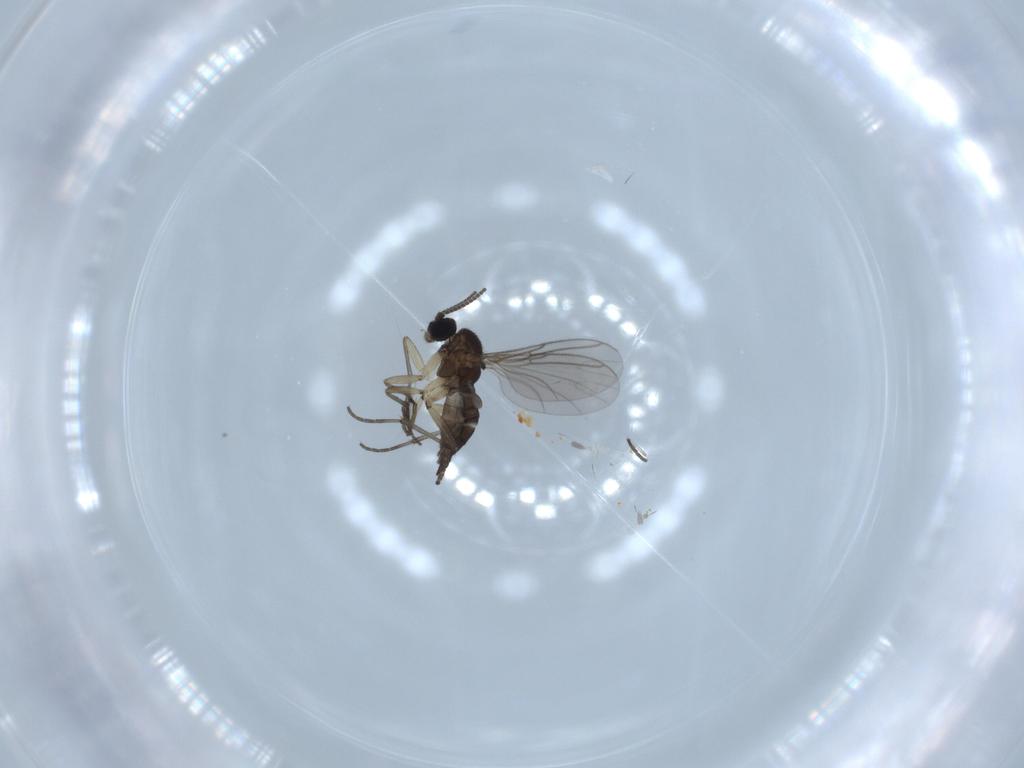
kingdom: Animalia
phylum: Arthropoda
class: Insecta
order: Diptera
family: Sciaridae
